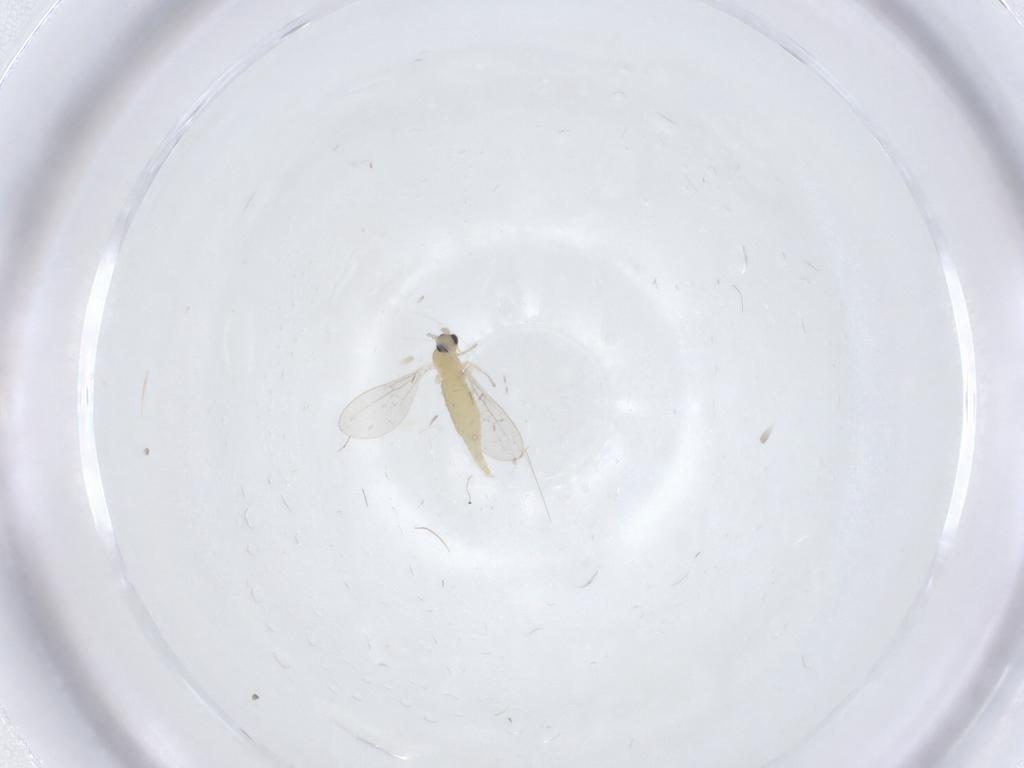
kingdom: Animalia
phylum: Arthropoda
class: Insecta
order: Diptera
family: Cecidomyiidae
